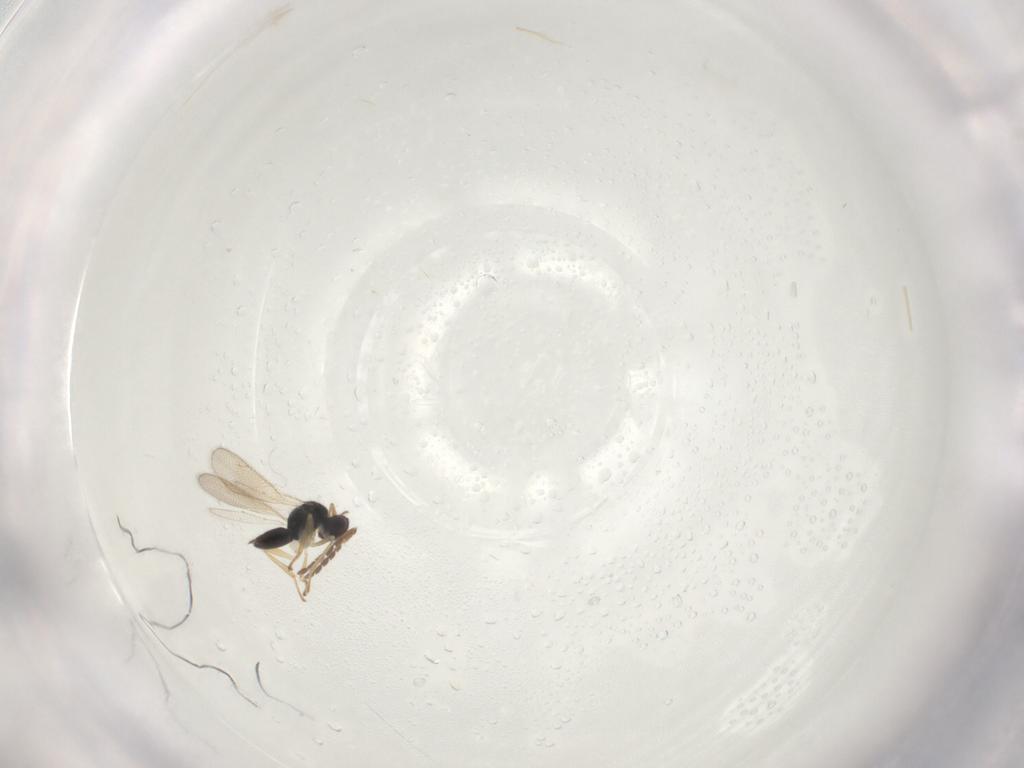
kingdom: Animalia
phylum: Arthropoda
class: Insecta
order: Hymenoptera
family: Eulophidae
